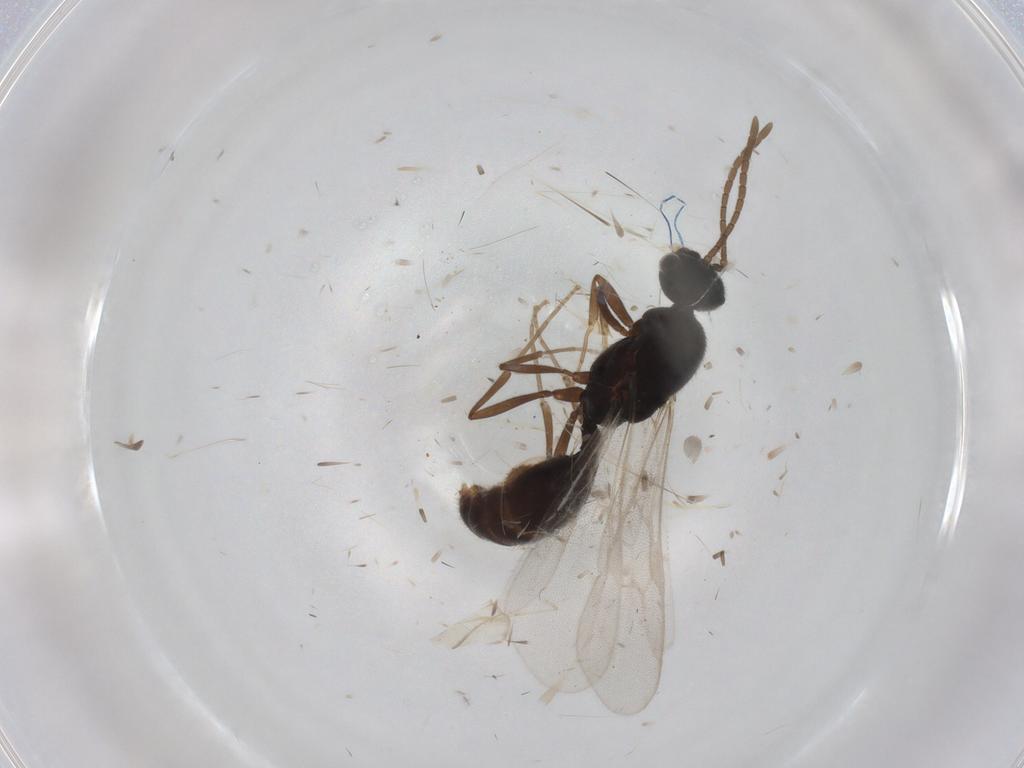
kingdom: Animalia
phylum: Arthropoda
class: Insecta
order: Hymenoptera
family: Formicidae
